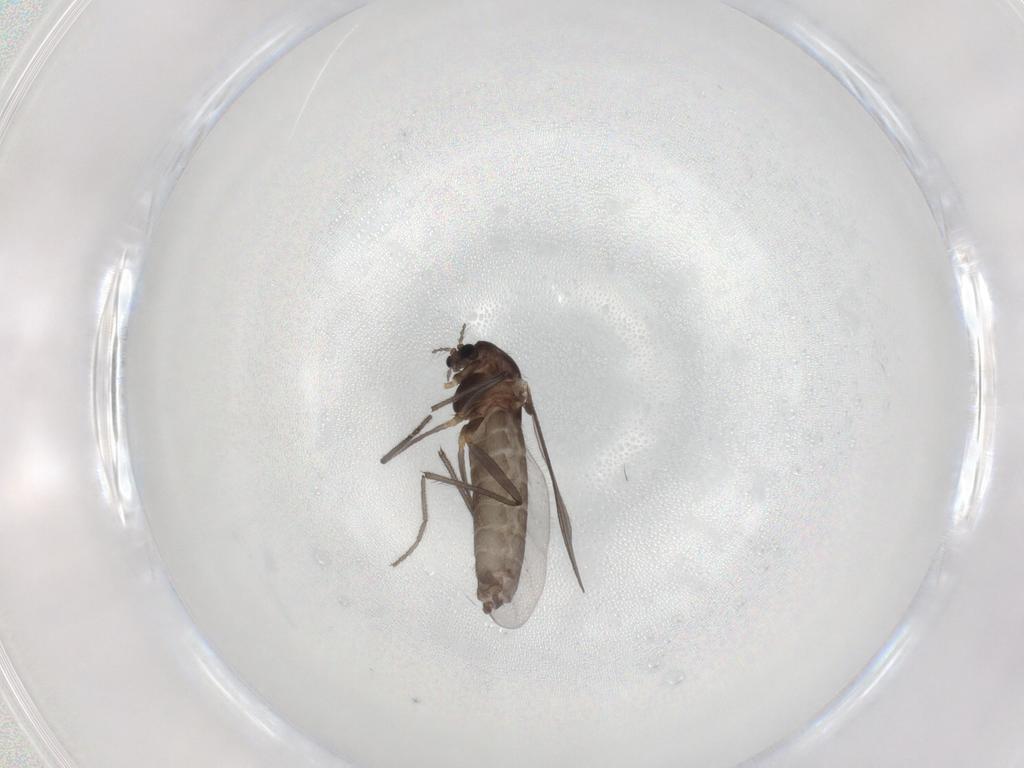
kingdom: Animalia
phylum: Arthropoda
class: Insecta
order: Diptera
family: Chironomidae
